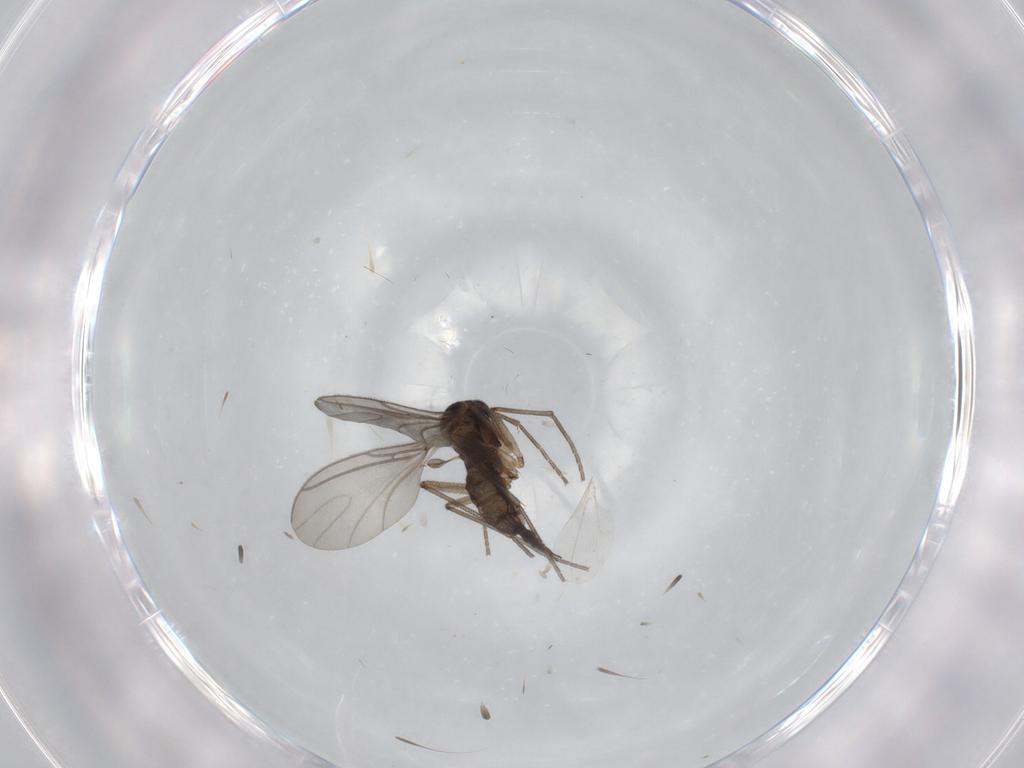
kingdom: Animalia
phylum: Arthropoda
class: Insecta
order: Diptera
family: Sciaridae
